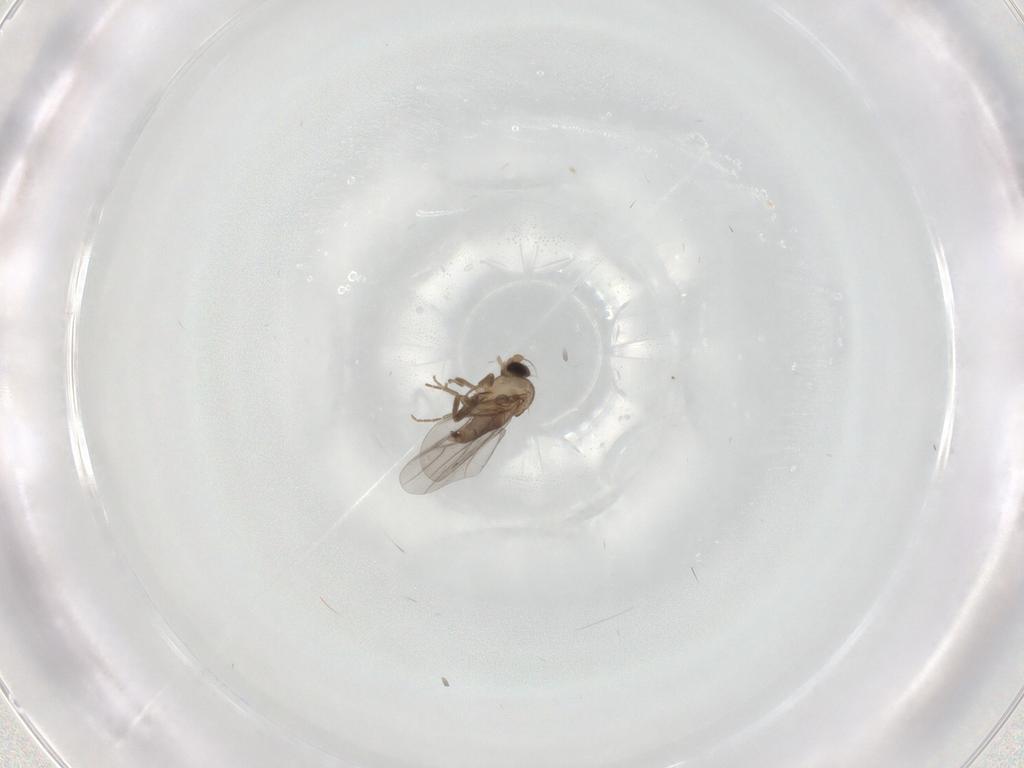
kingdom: Animalia
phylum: Arthropoda
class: Insecta
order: Diptera
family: Chironomidae
